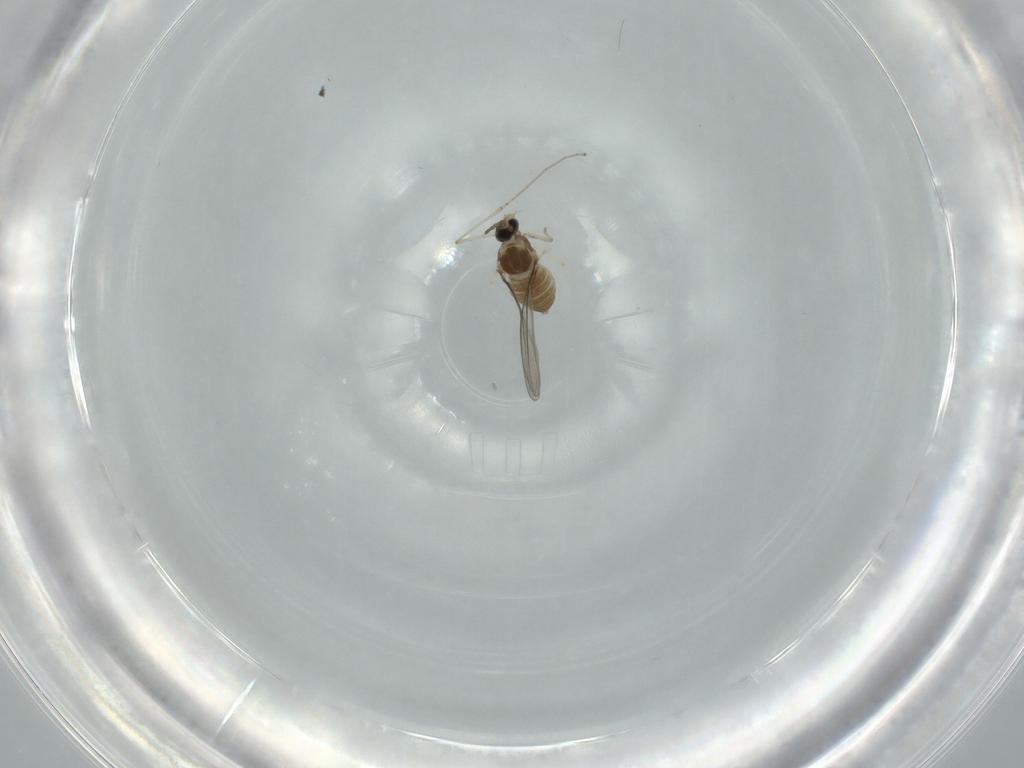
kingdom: Animalia
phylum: Arthropoda
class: Insecta
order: Diptera
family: Cecidomyiidae
